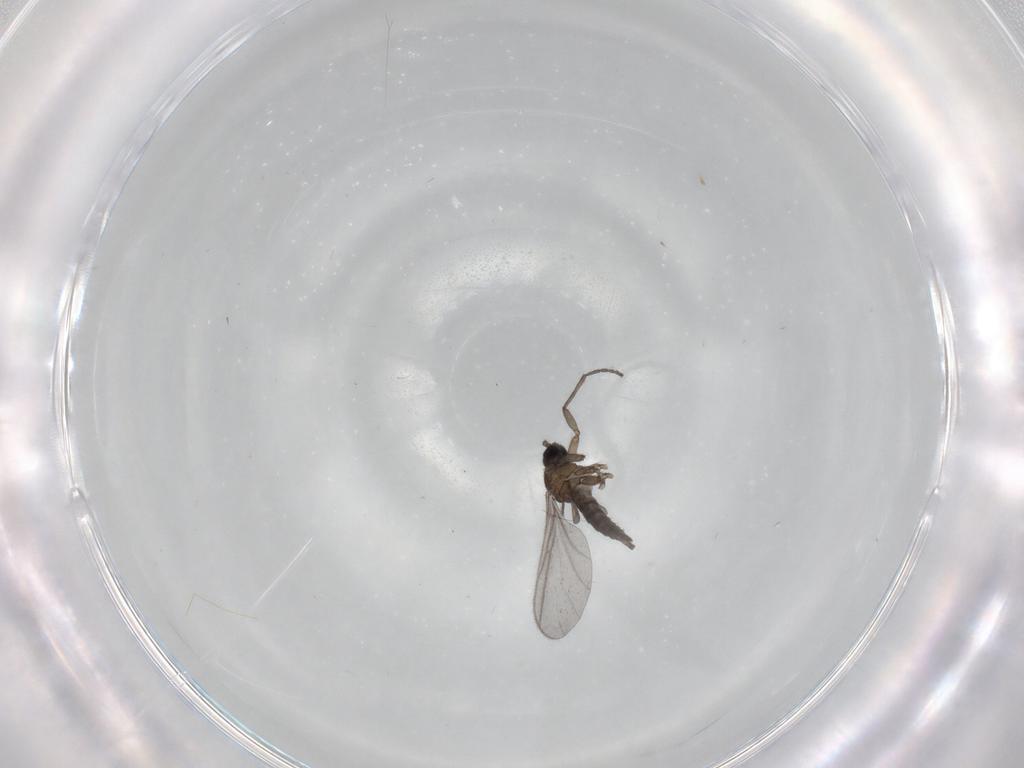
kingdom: Animalia
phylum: Arthropoda
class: Insecta
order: Diptera
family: Sciaridae
